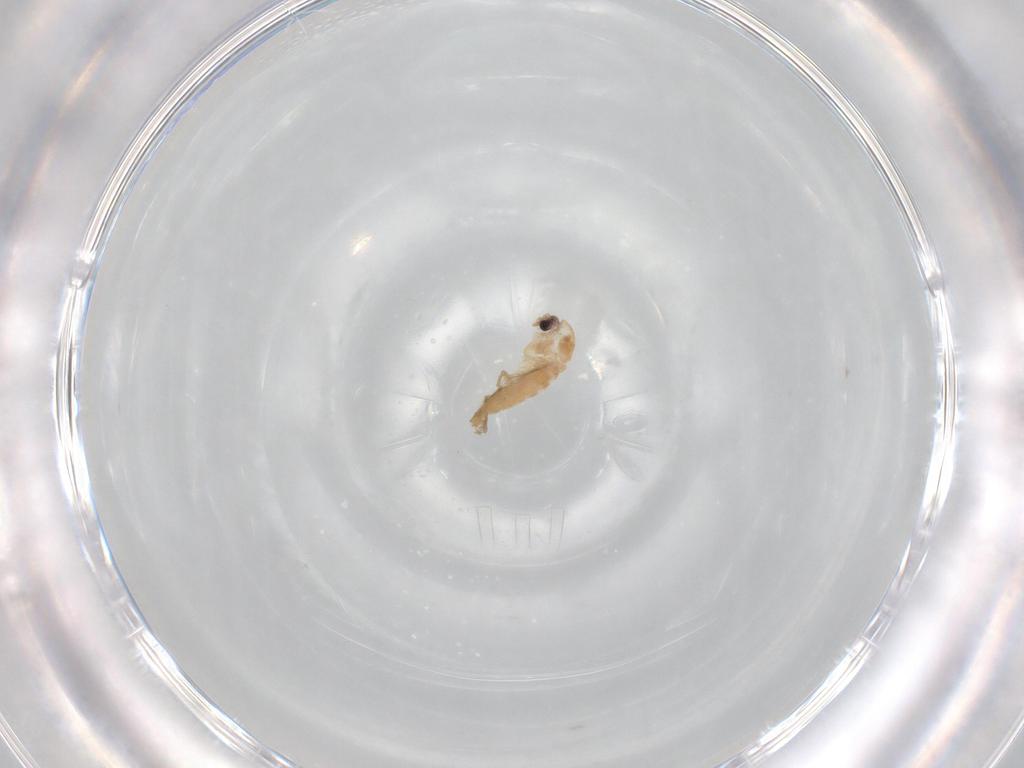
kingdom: Animalia
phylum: Arthropoda
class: Insecta
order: Diptera
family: Chironomidae
